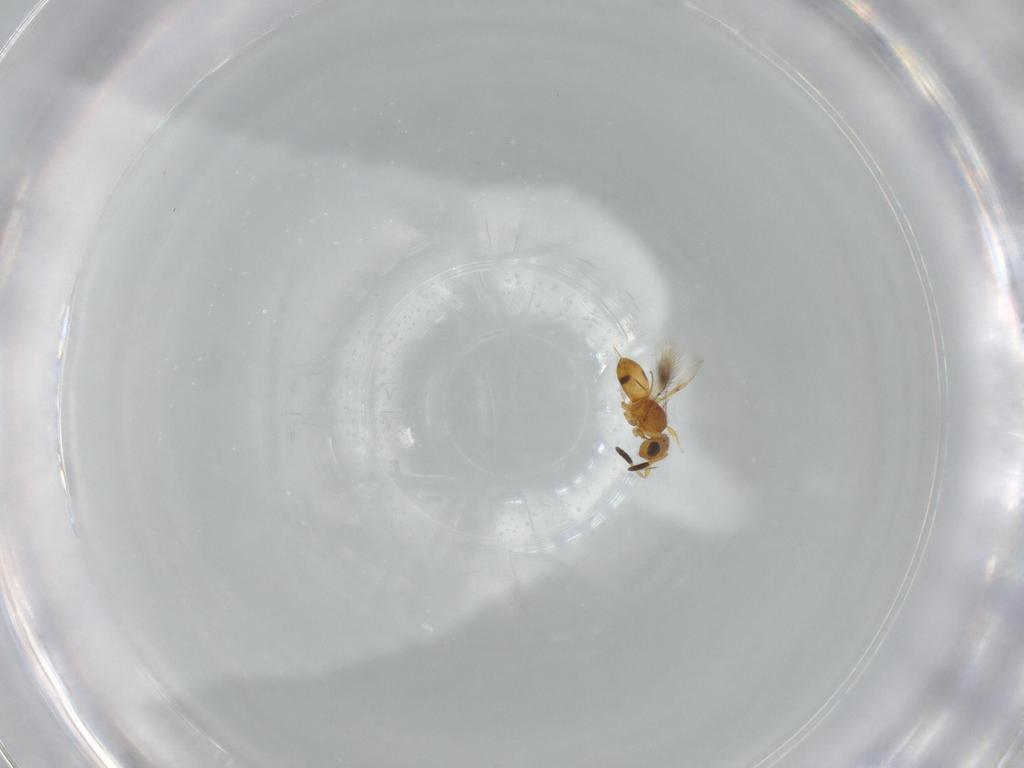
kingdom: Animalia
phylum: Arthropoda
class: Insecta
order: Hymenoptera
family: Scelionidae
